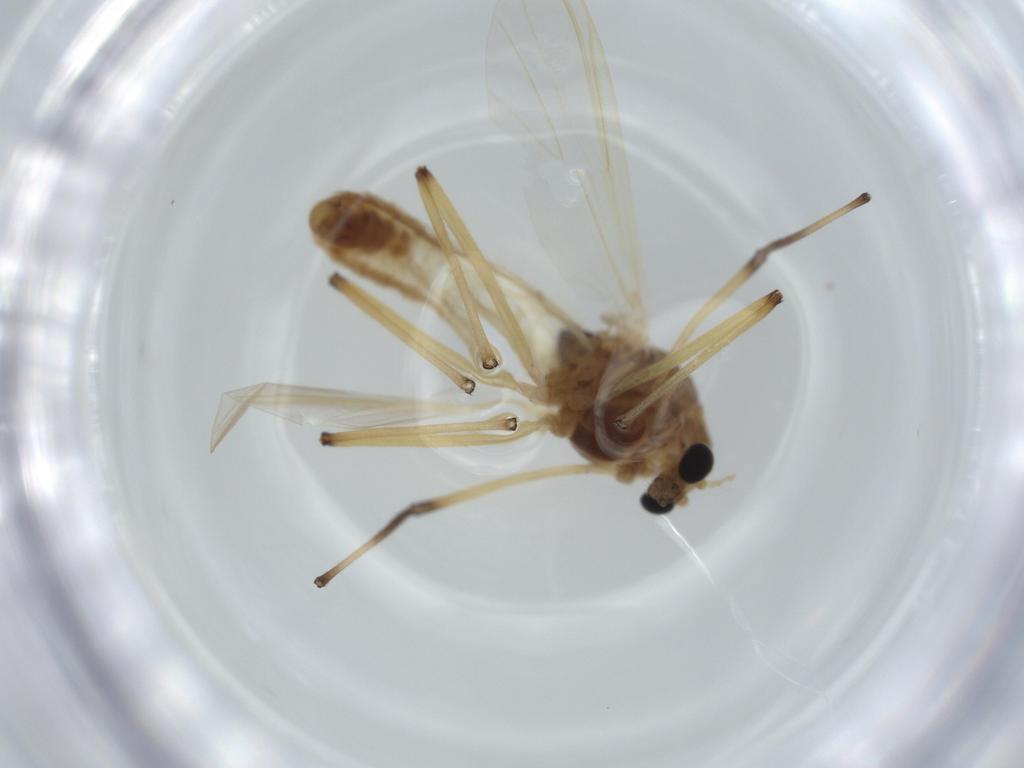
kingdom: Animalia
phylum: Arthropoda
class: Insecta
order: Diptera
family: Chironomidae
